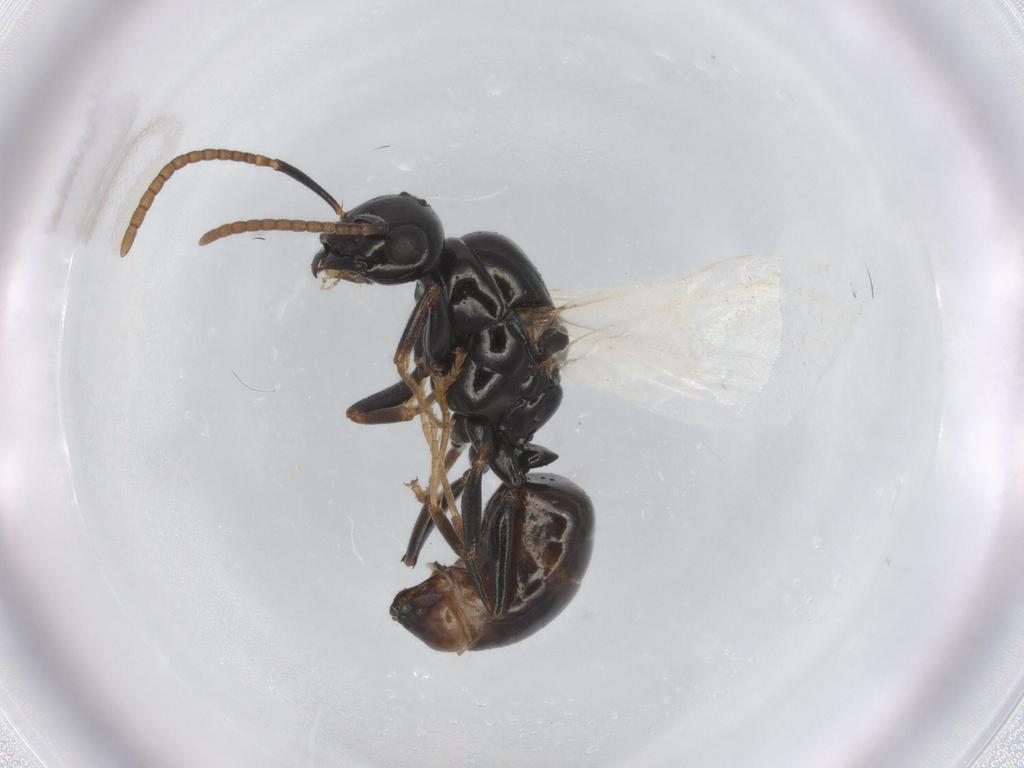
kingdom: Animalia
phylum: Arthropoda
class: Insecta
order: Hymenoptera
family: Formicidae
